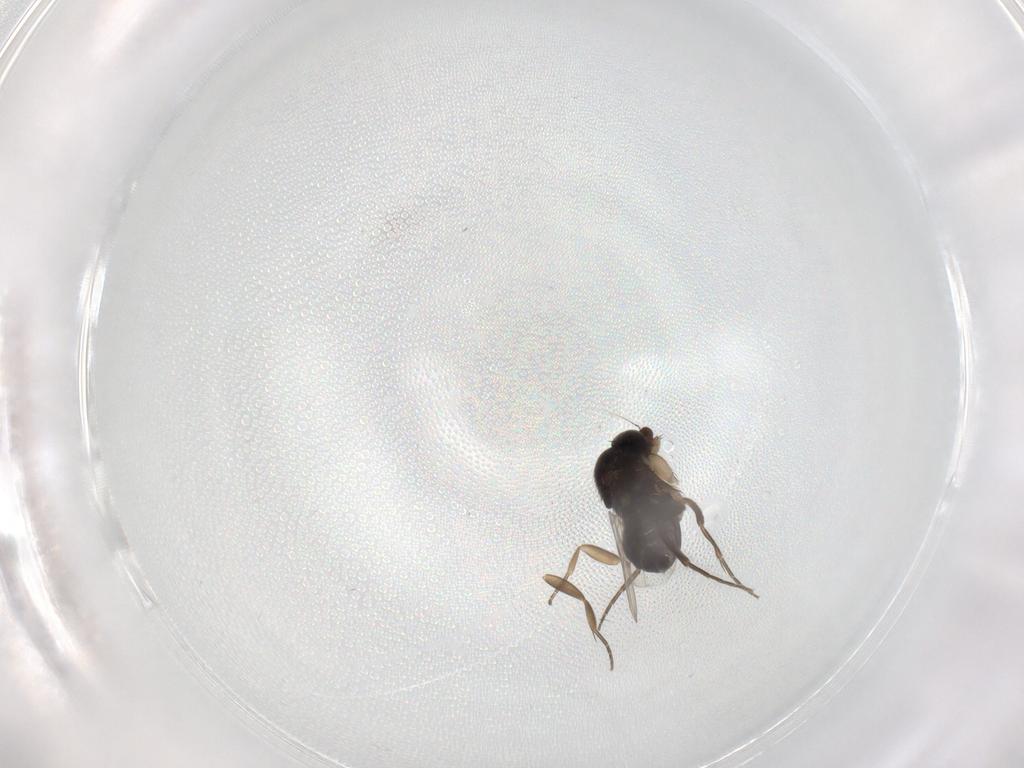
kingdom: Animalia
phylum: Arthropoda
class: Insecta
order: Diptera
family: Phoridae
